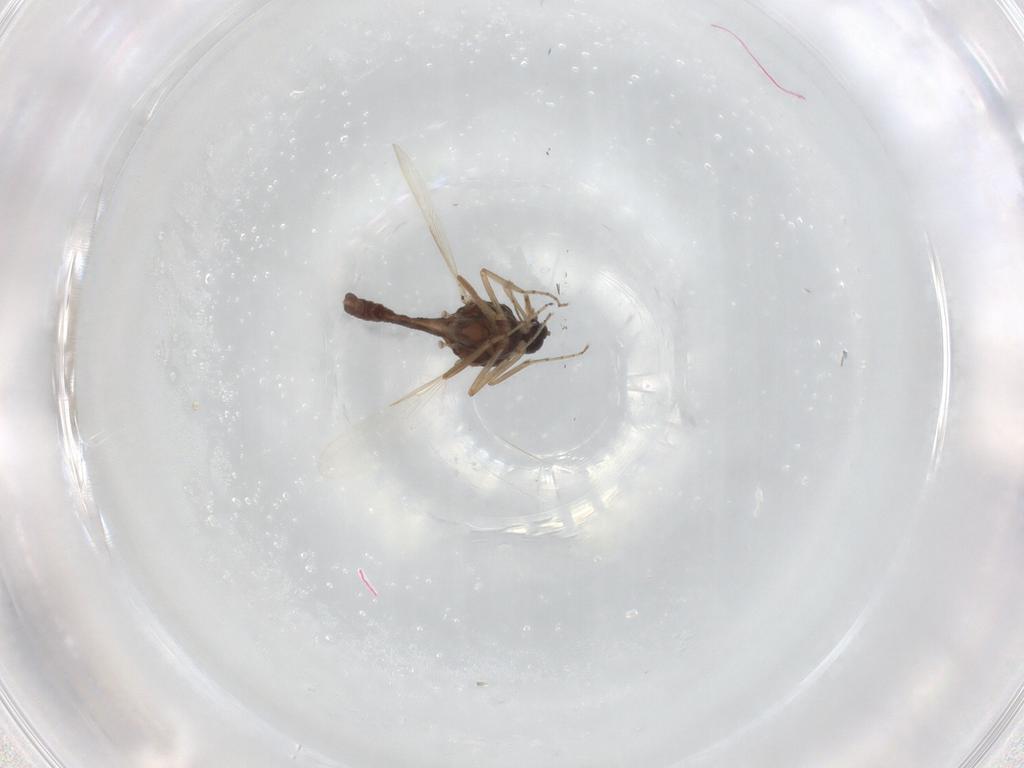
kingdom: Animalia
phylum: Arthropoda
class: Insecta
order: Diptera
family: Ceratopogonidae
